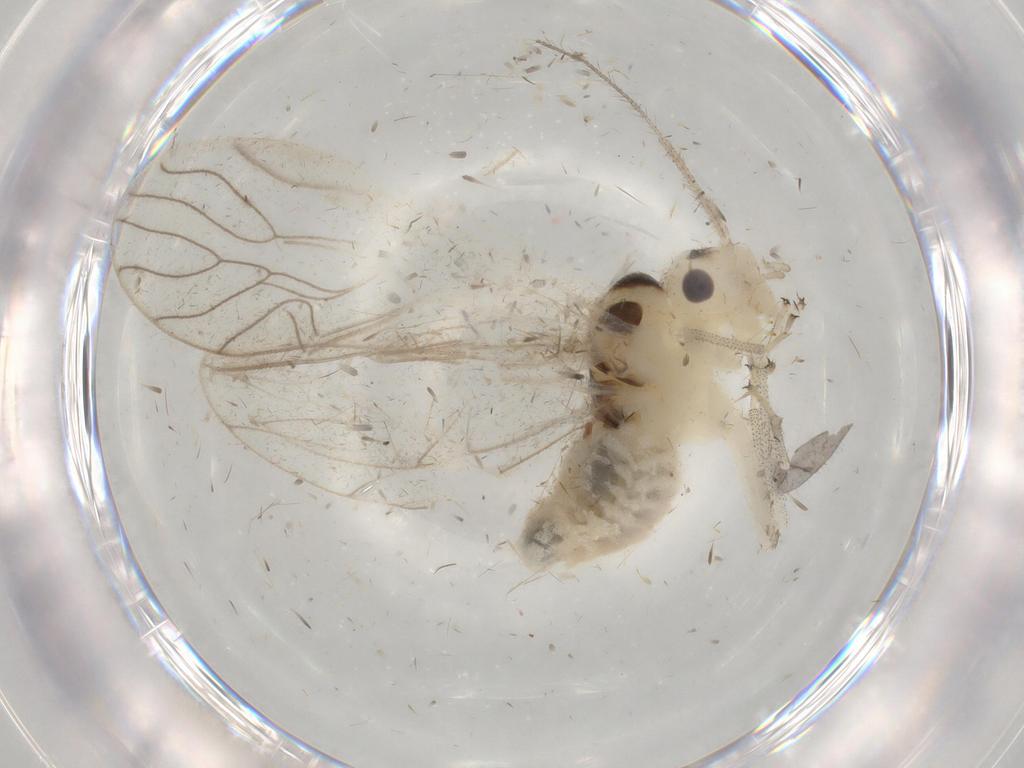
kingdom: Animalia
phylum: Arthropoda
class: Insecta
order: Psocodea
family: Amphipsocidae
